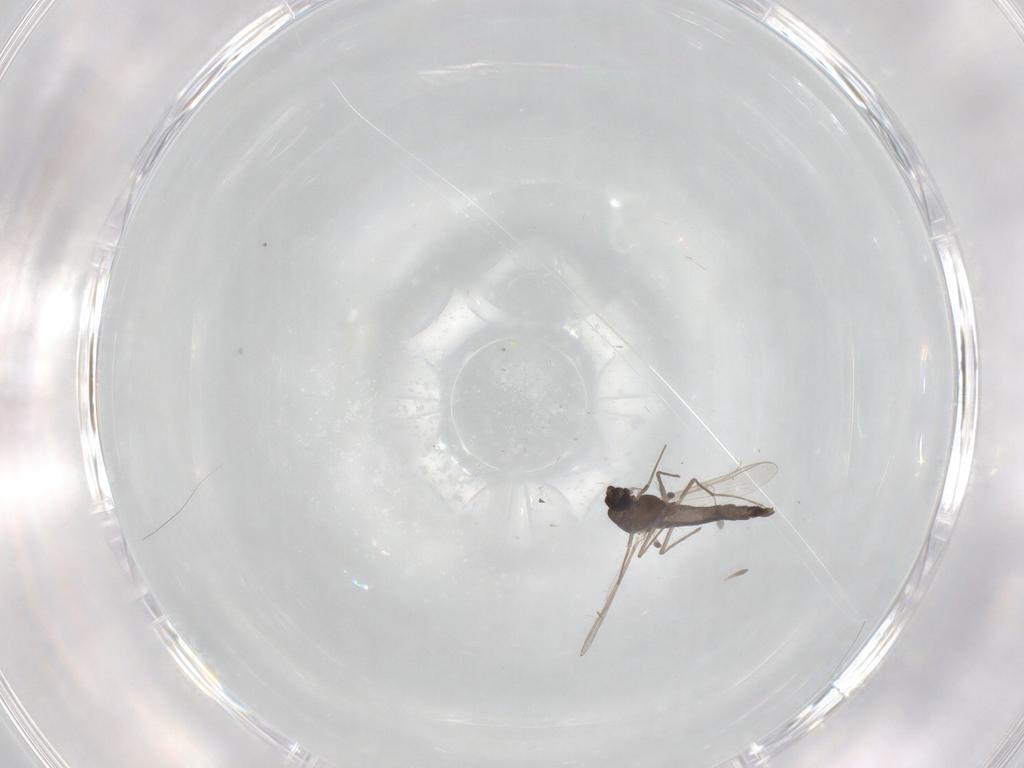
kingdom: Animalia
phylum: Arthropoda
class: Insecta
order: Diptera
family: Chironomidae
